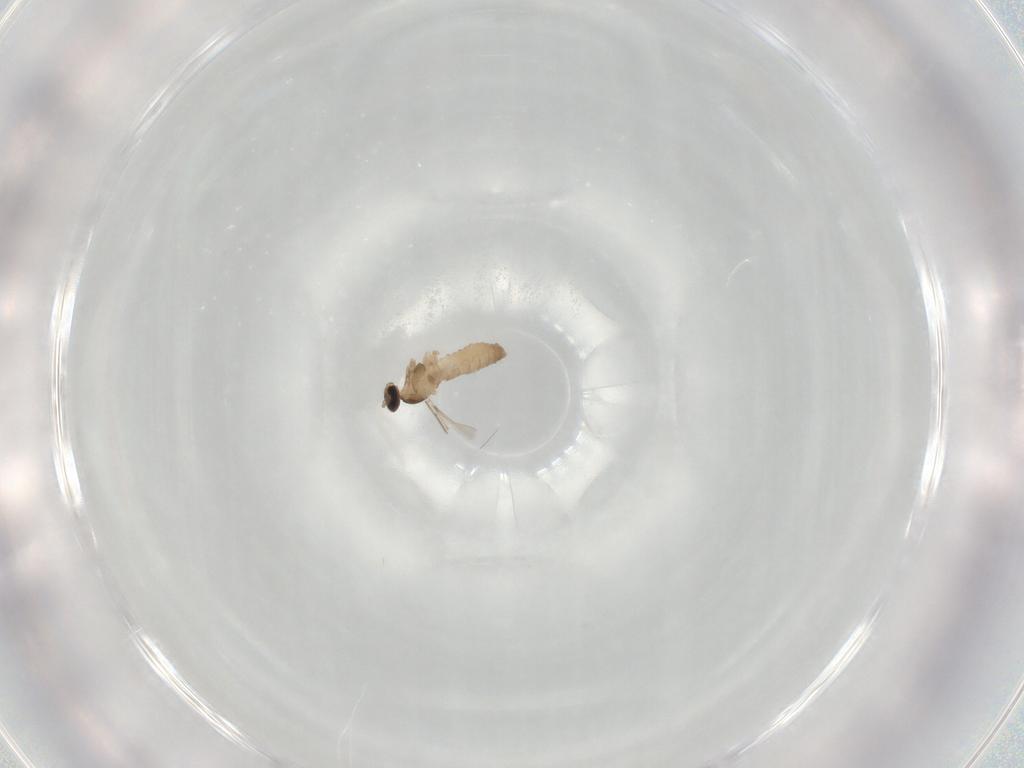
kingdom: Animalia
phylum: Arthropoda
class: Insecta
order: Diptera
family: Cecidomyiidae
